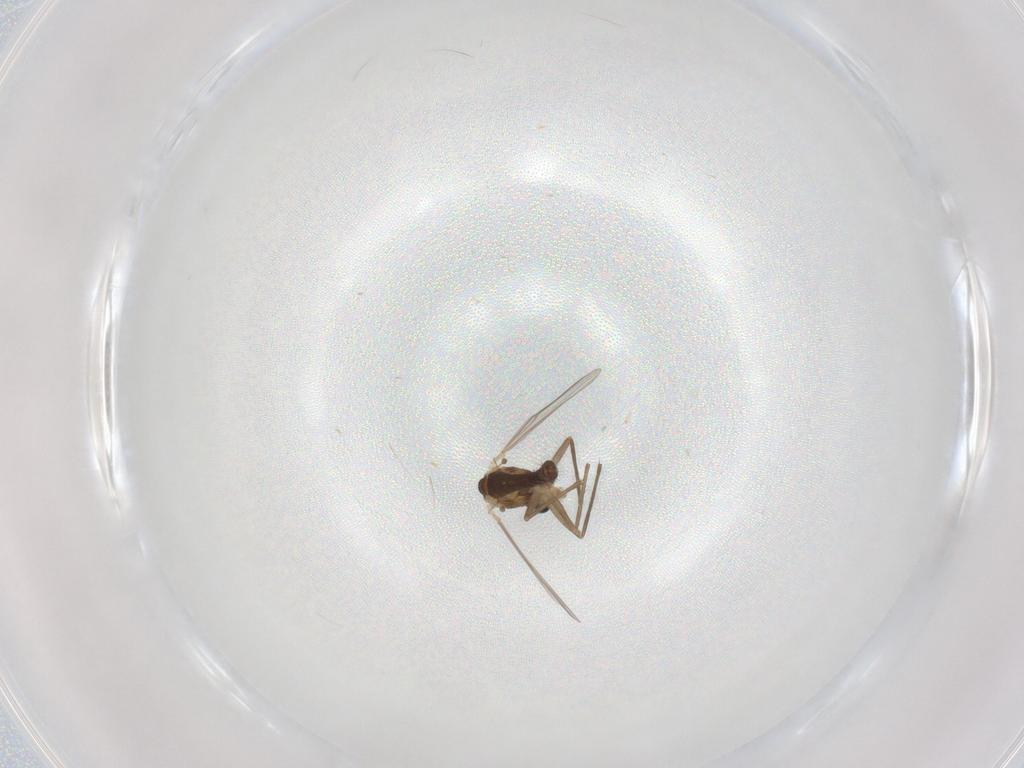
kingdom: Animalia
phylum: Arthropoda
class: Insecta
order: Diptera
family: Chironomidae
